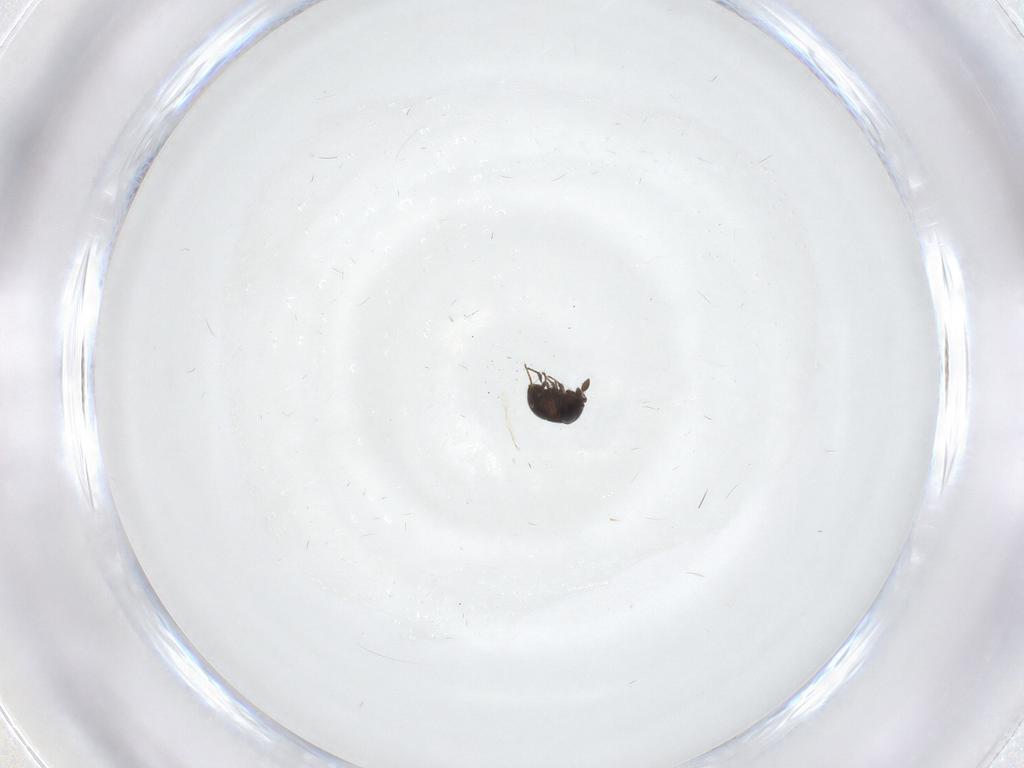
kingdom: Animalia
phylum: Arthropoda
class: Insecta
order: Hymenoptera
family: Scelionidae
